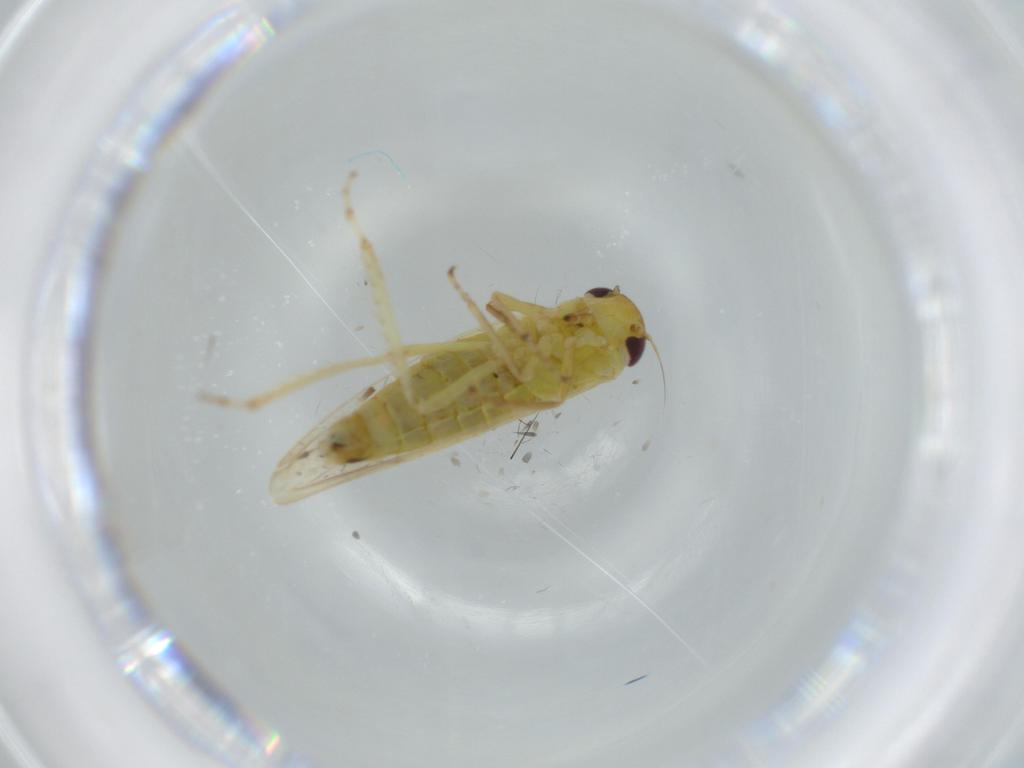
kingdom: Animalia
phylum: Arthropoda
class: Insecta
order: Hemiptera
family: Cicadellidae
